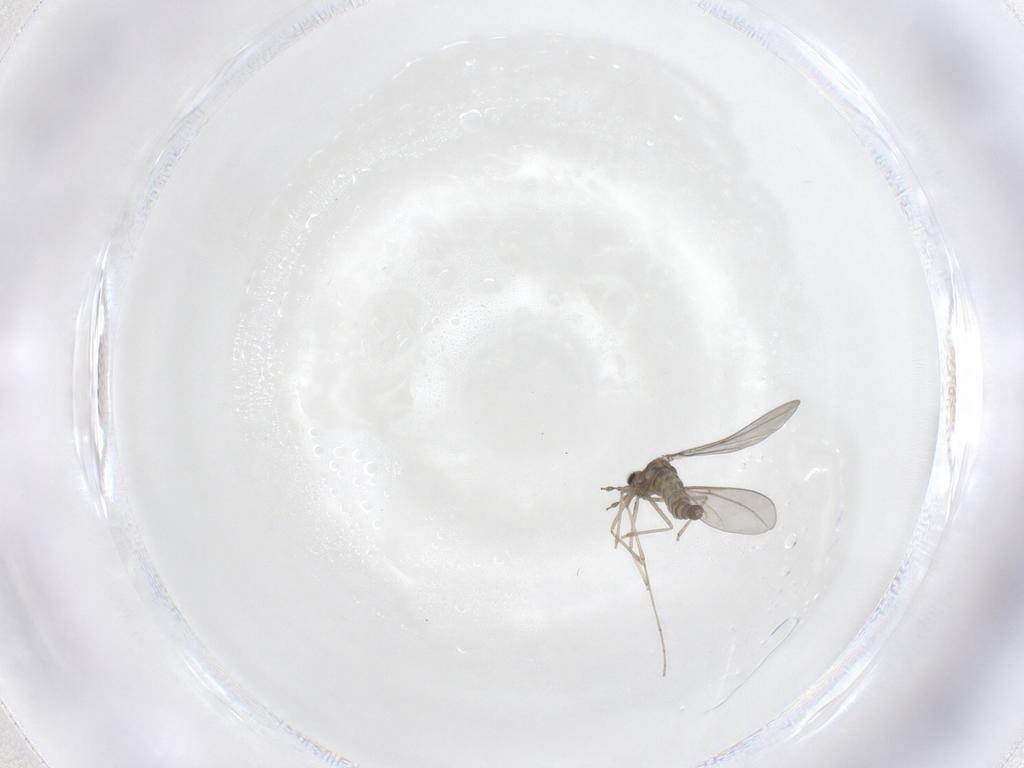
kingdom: Animalia
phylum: Arthropoda
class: Insecta
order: Diptera
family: Cecidomyiidae
